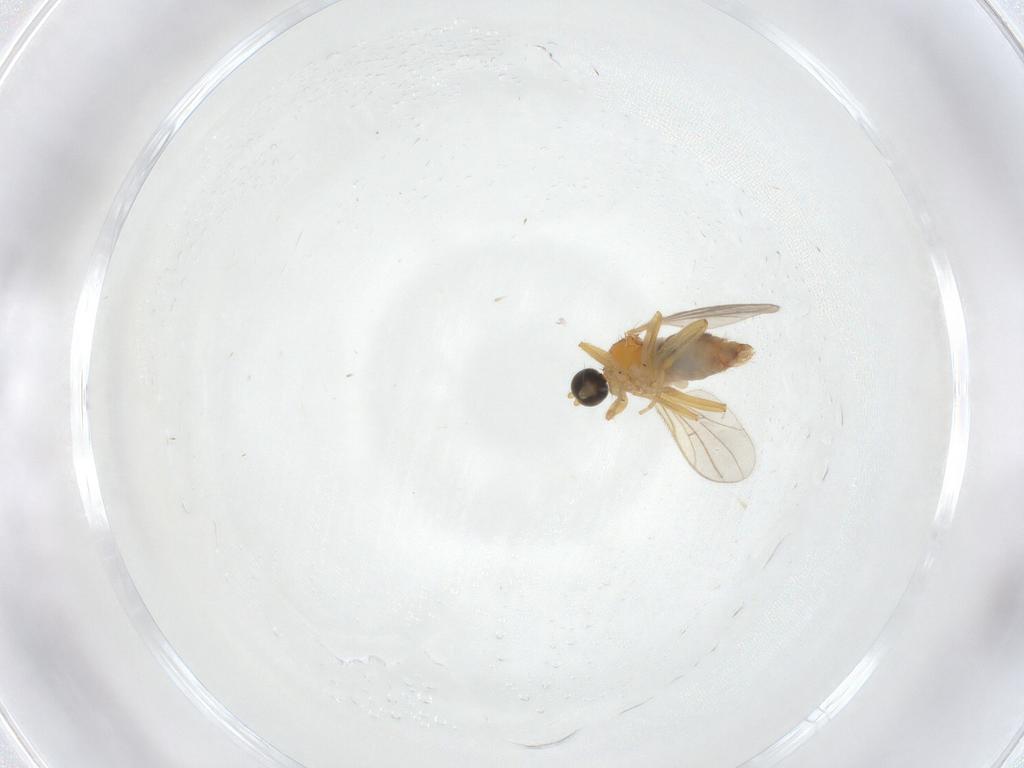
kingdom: Animalia
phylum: Arthropoda
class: Insecta
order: Diptera
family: Hybotidae
